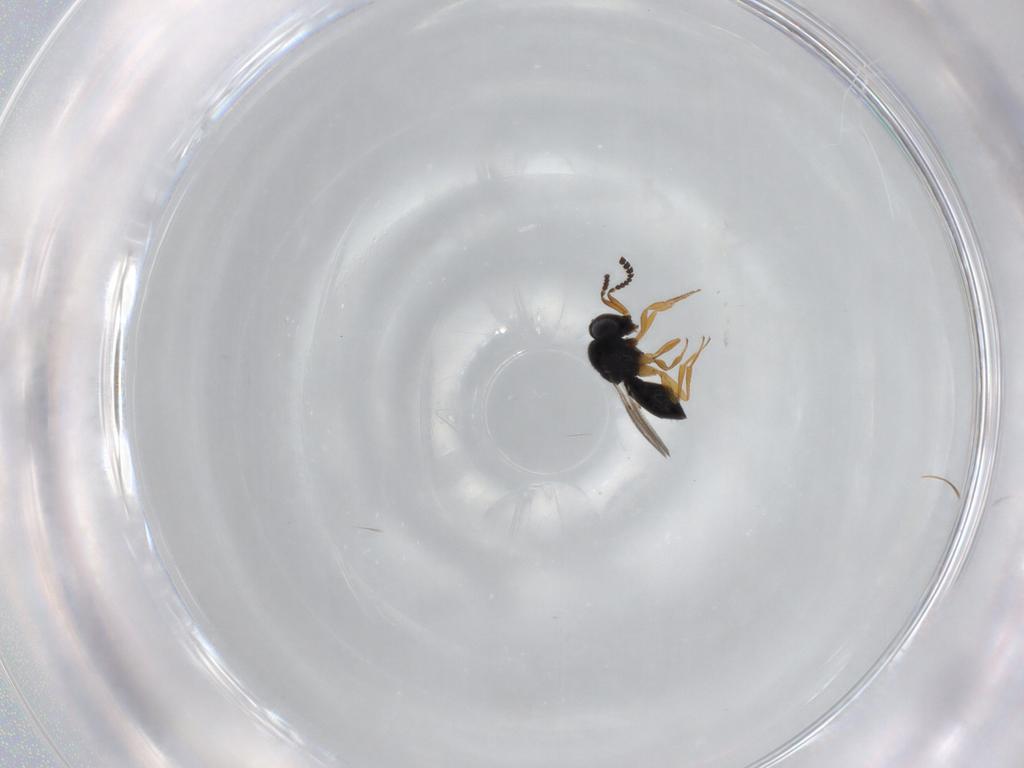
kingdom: Animalia
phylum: Arthropoda
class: Insecta
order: Hymenoptera
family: Scelionidae
